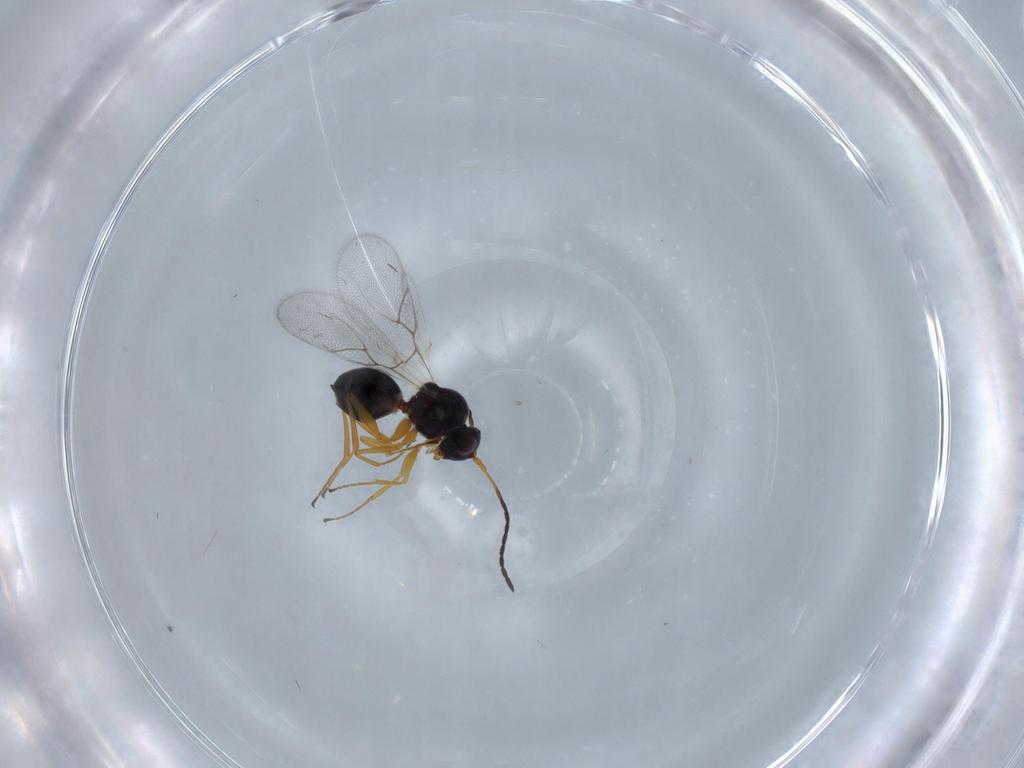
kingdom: Animalia
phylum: Arthropoda
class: Insecta
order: Hymenoptera
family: Figitidae
